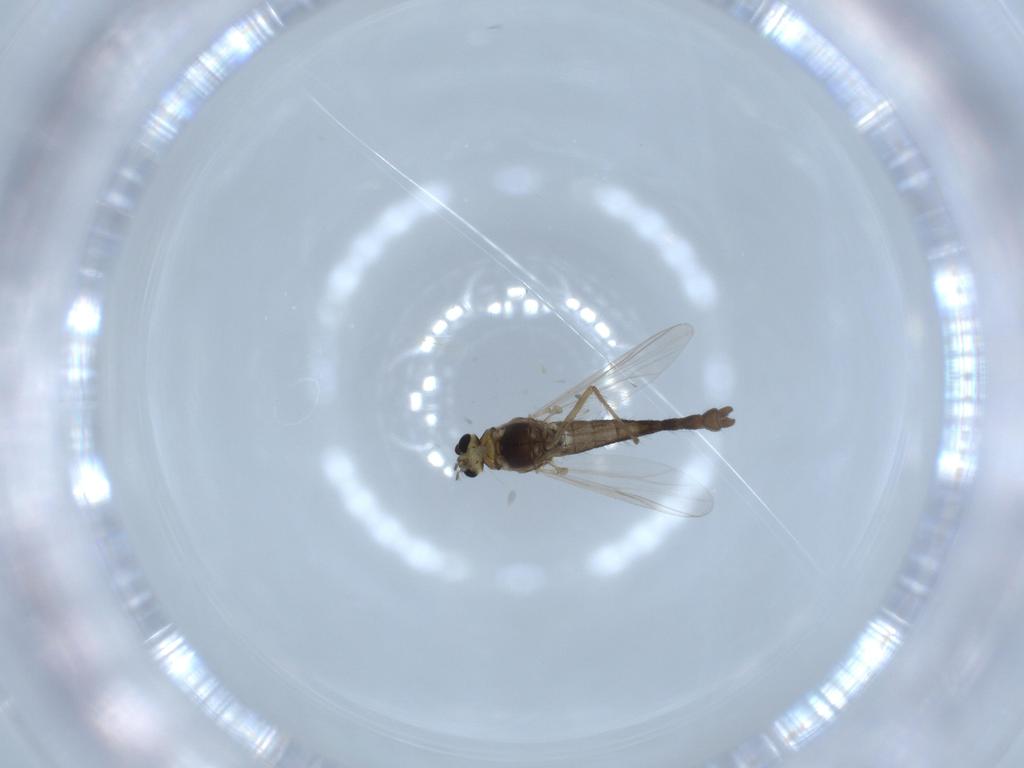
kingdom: Animalia
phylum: Arthropoda
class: Insecta
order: Diptera
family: Chironomidae
